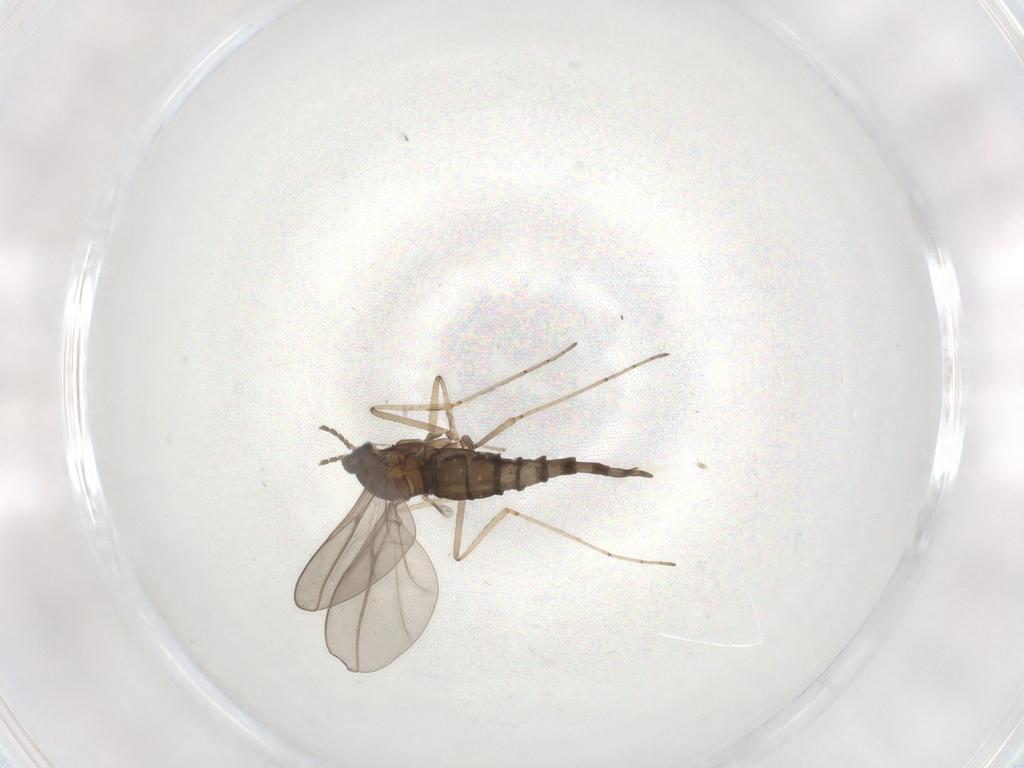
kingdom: Animalia
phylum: Arthropoda
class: Insecta
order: Diptera
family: Cecidomyiidae
